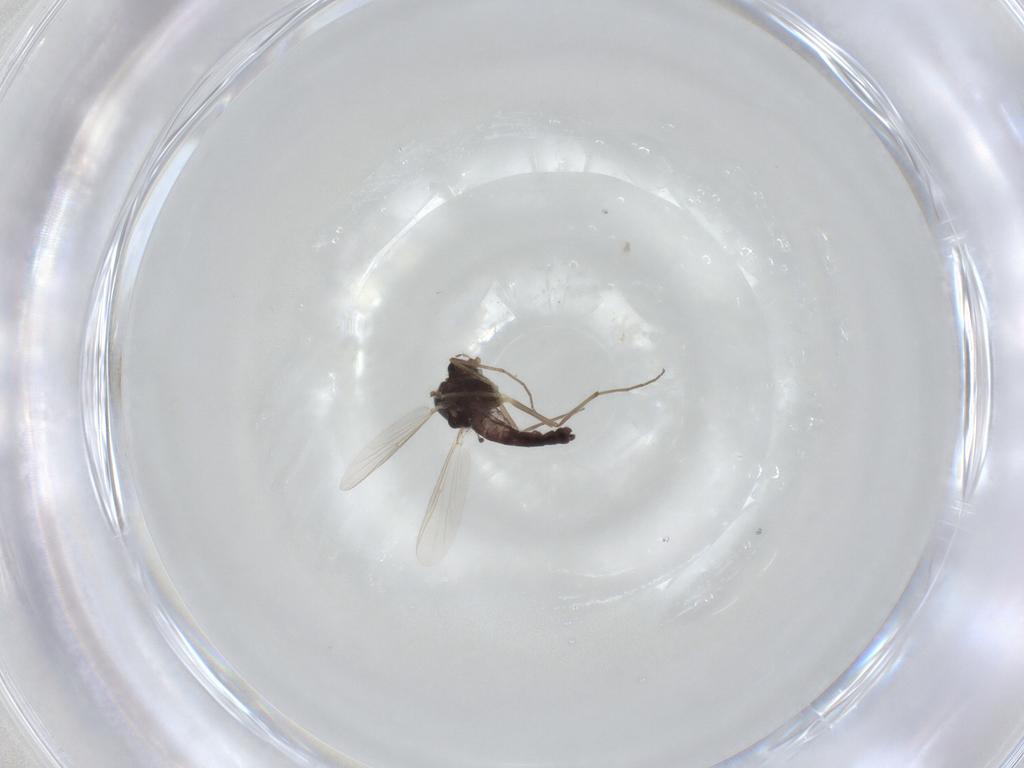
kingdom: Animalia
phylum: Arthropoda
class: Insecta
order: Diptera
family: Chironomidae
